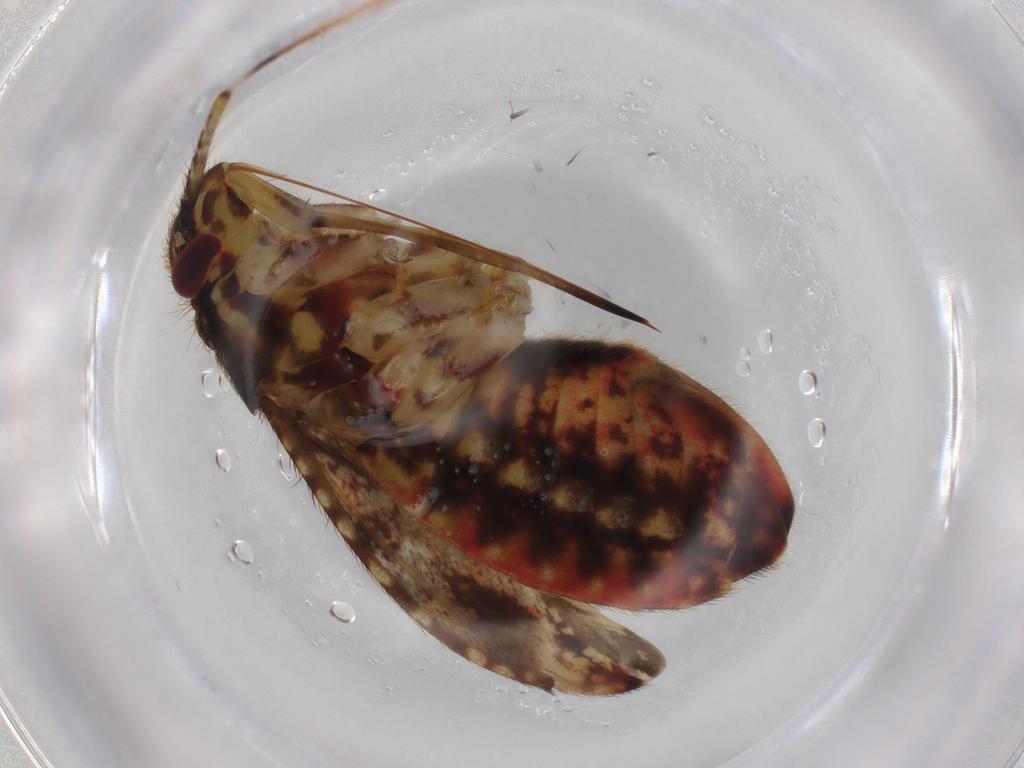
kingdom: Animalia
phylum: Arthropoda
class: Insecta
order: Hemiptera
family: Miridae
